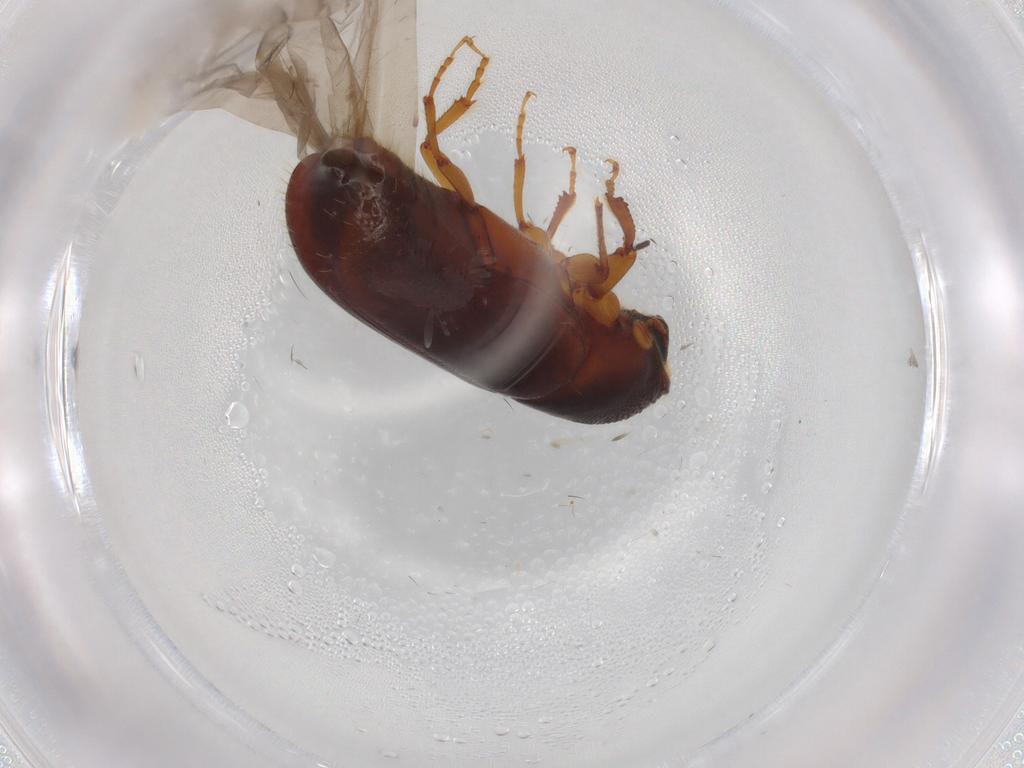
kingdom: Animalia
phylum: Arthropoda
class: Insecta
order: Coleoptera
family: Curculionidae
